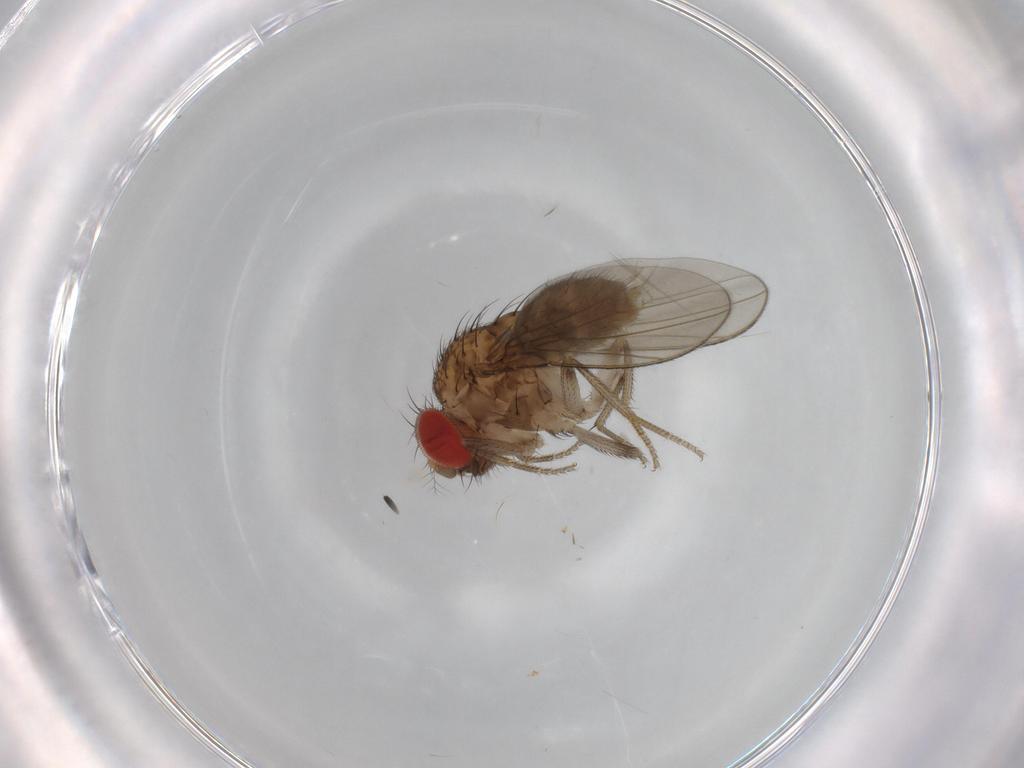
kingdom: Animalia
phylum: Arthropoda
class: Insecta
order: Diptera
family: Drosophilidae
